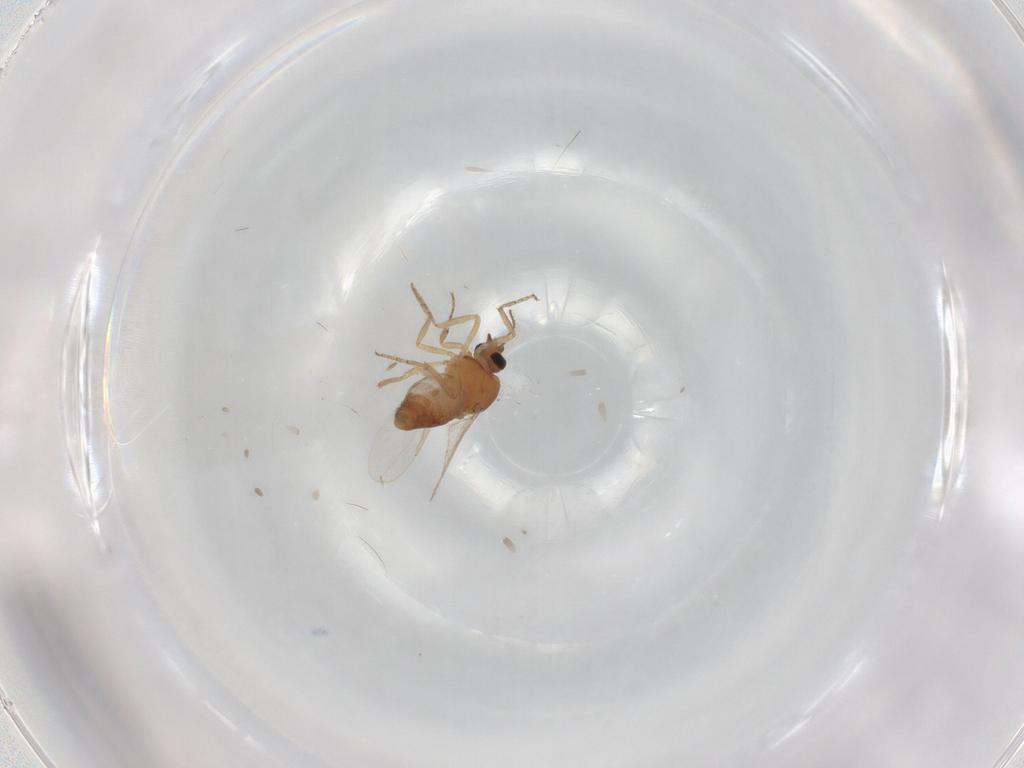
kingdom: Animalia
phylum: Arthropoda
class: Insecta
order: Diptera
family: Ceratopogonidae
